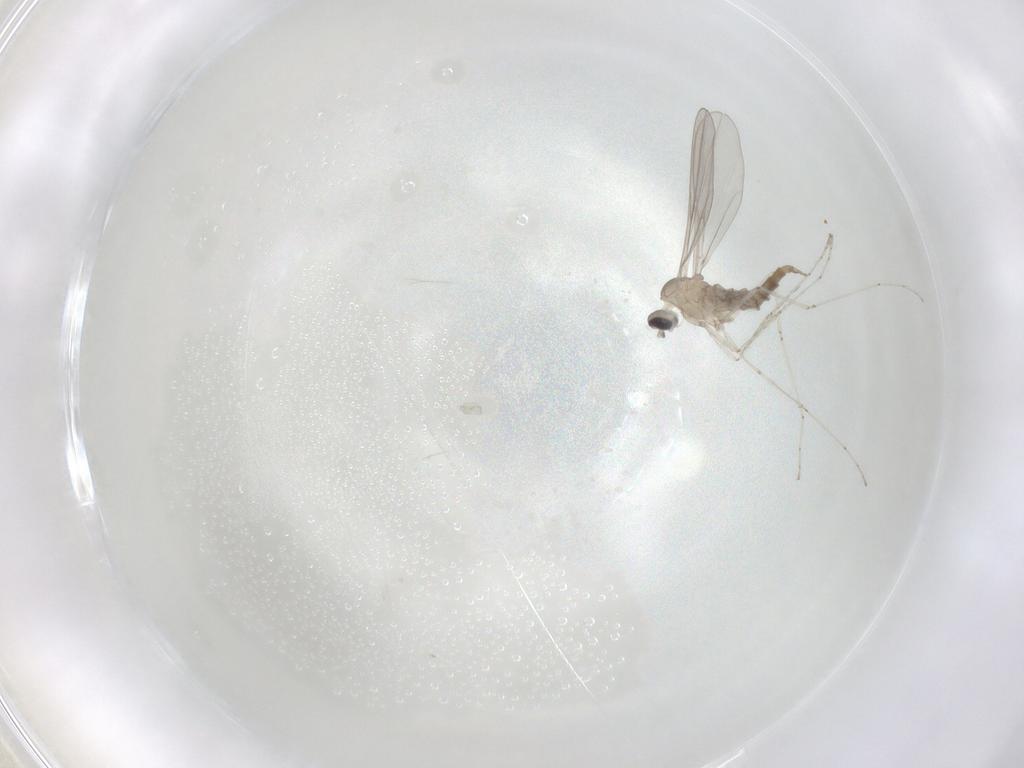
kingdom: Animalia
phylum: Arthropoda
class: Insecta
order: Diptera
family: Cecidomyiidae
